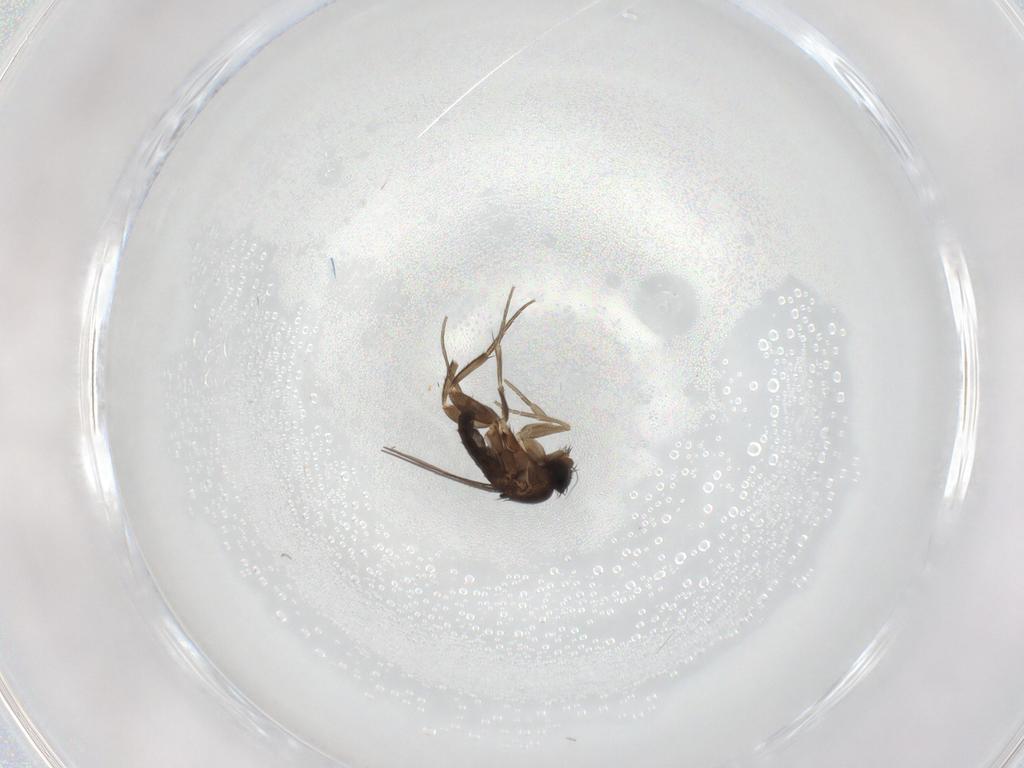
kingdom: Animalia
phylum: Arthropoda
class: Insecta
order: Diptera
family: Phoridae
